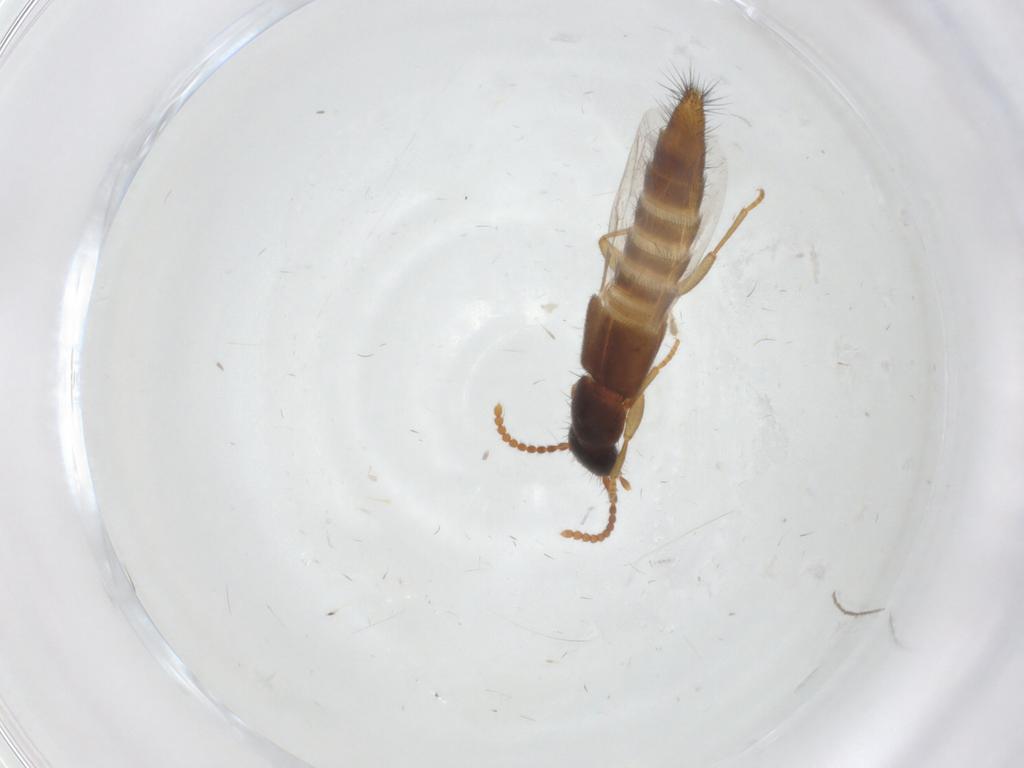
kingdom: Animalia
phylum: Arthropoda
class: Insecta
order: Coleoptera
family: Staphylinidae
